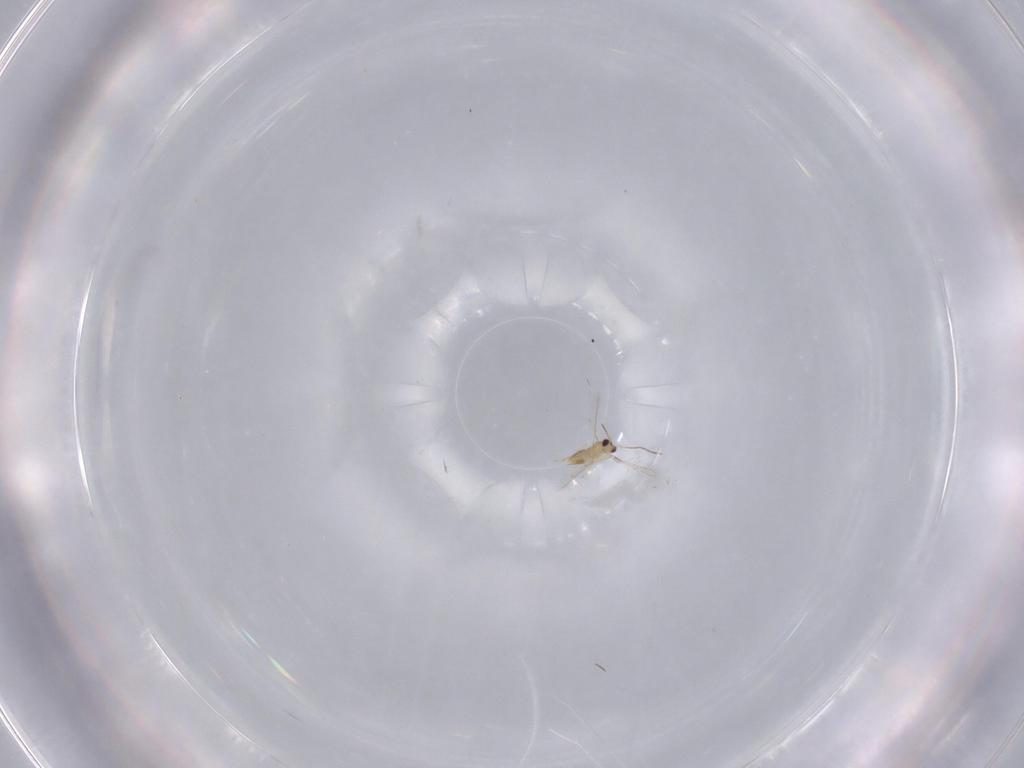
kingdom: Animalia
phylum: Arthropoda
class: Insecta
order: Hymenoptera
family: Mymaridae
